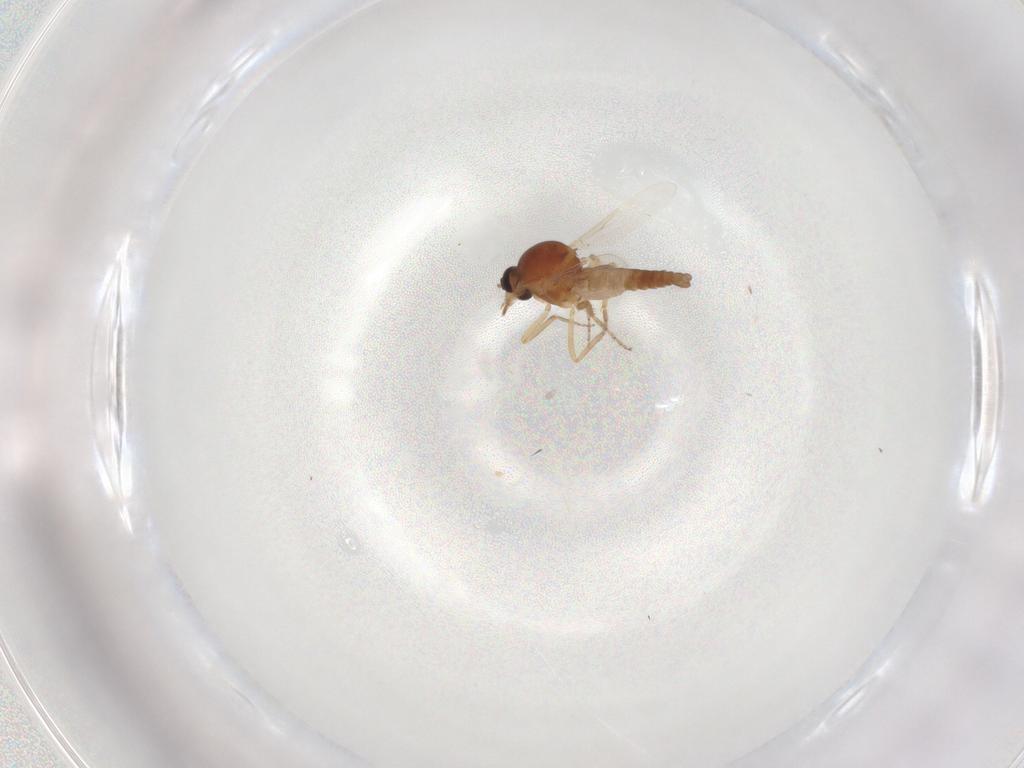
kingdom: Animalia
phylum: Arthropoda
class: Insecta
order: Diptera
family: Ceratopogonidae
